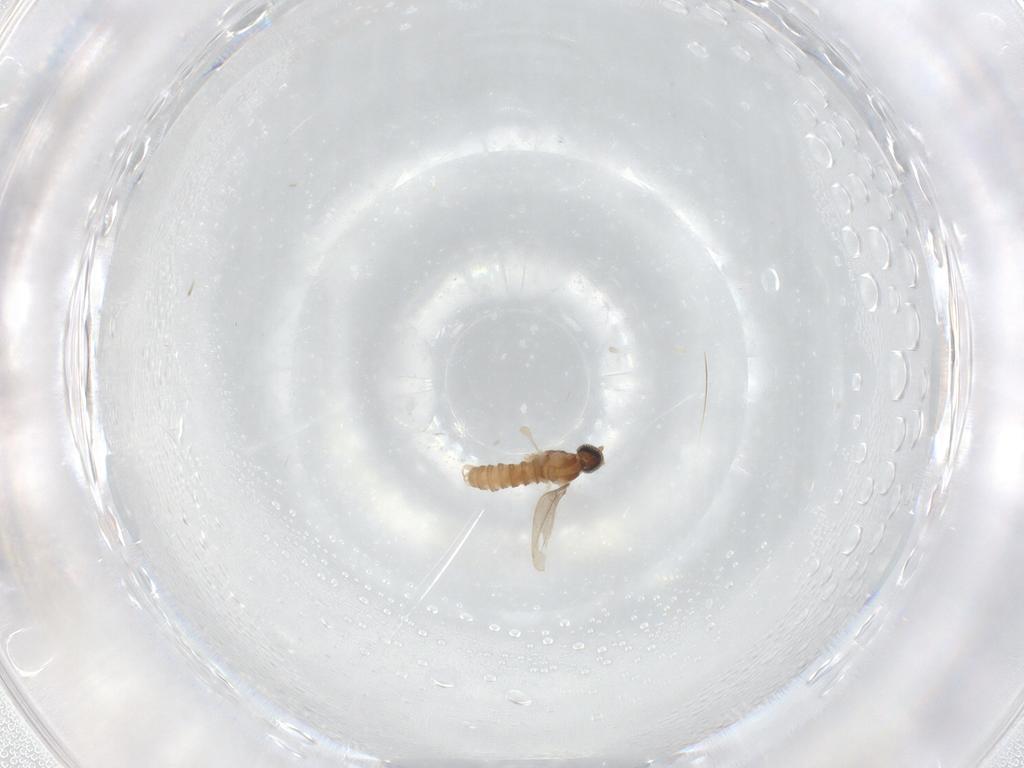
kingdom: Animalia
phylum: Arthropoda
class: Insecta
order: Diptera
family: Cecidomyiidae
